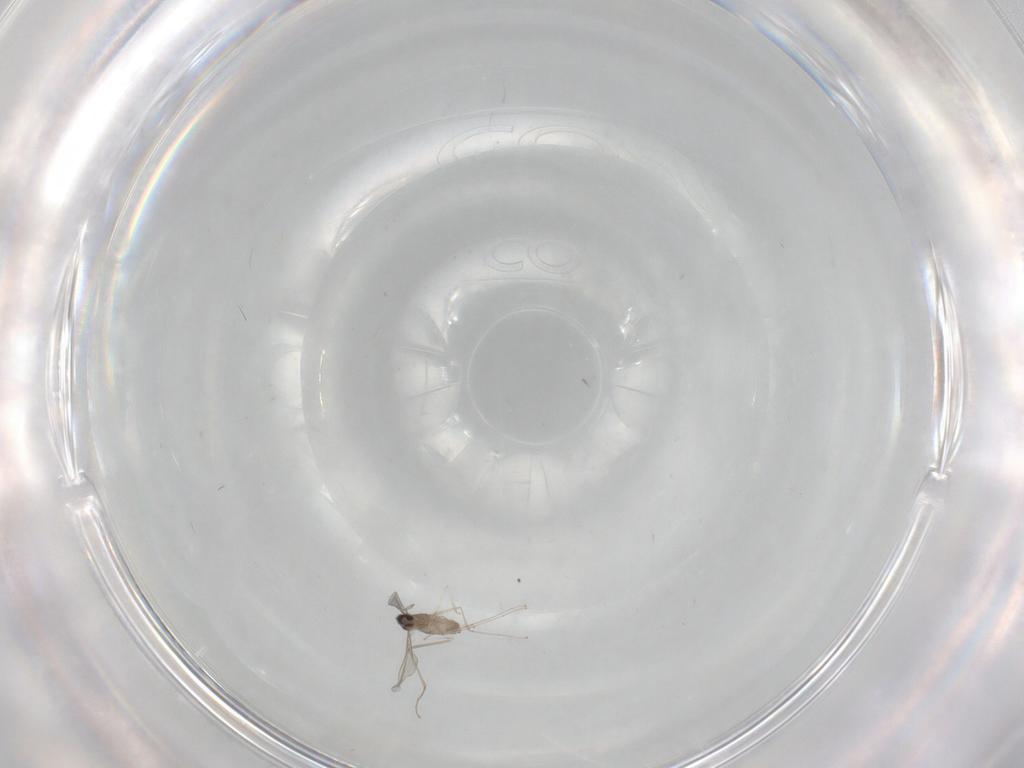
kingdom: Animalia
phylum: Arthropoda
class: Insecta
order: Diptera
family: Cecidomyiidae
